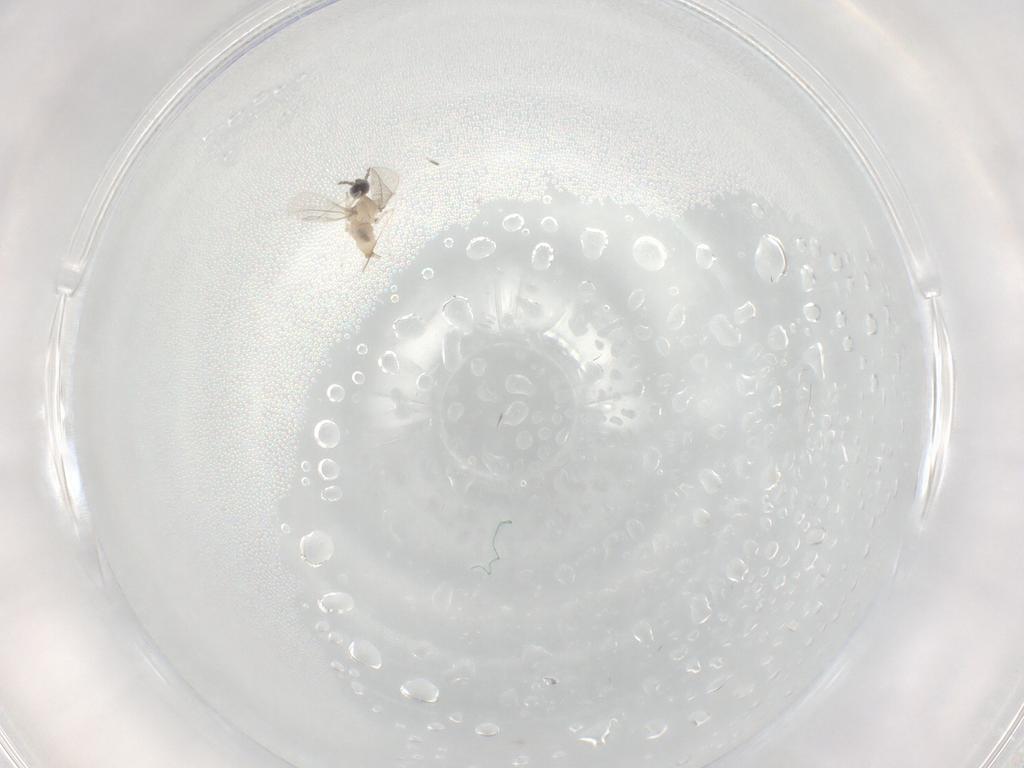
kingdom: Animalia
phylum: Arthropoda
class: Insecta
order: Diptera
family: Cecidomyiidae
